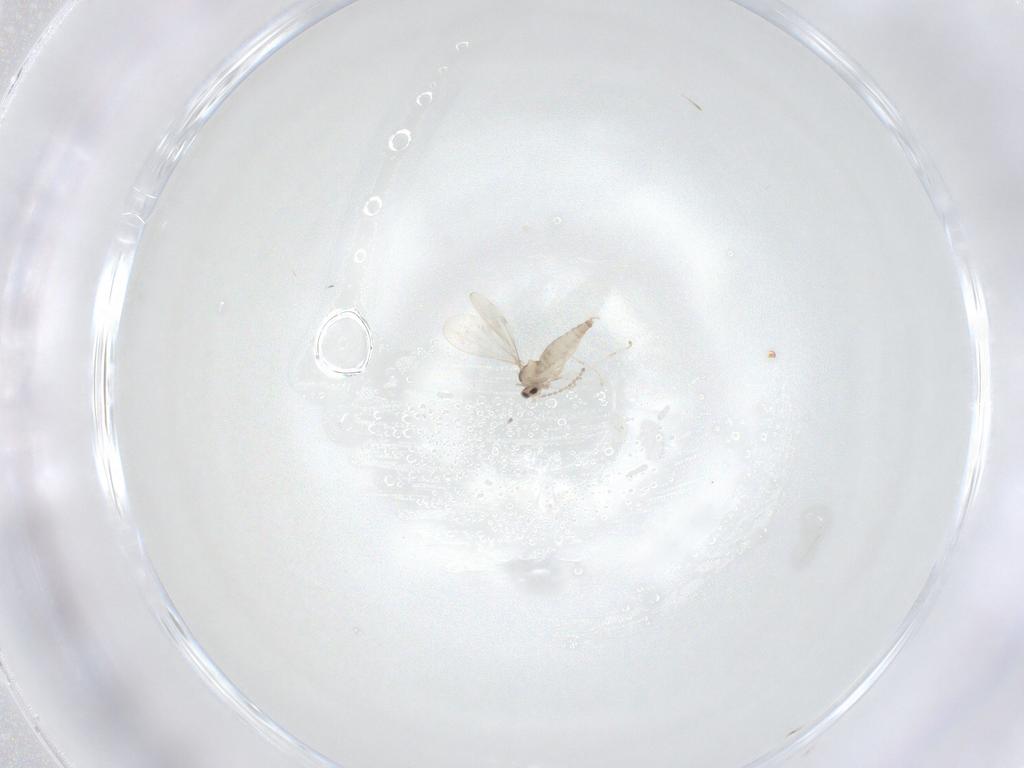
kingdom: Animalia
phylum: Arthropoda
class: Insecta
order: Diptera
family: Cecidomyiidae
